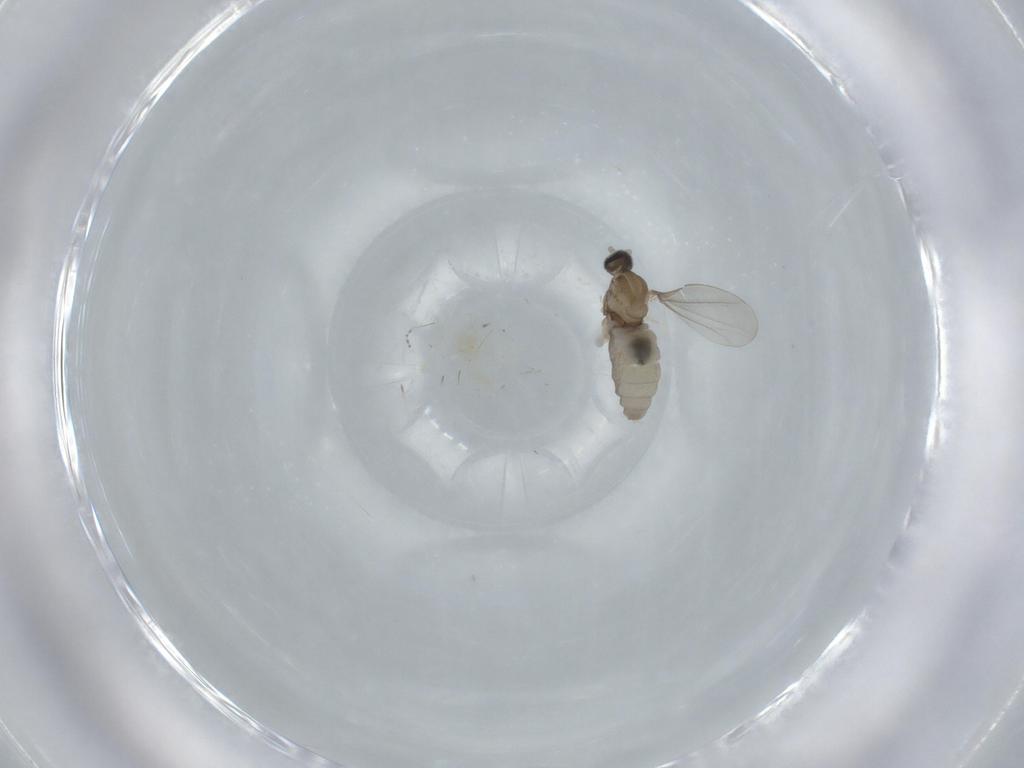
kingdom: Animalia
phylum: Arthropoda
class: Insecta
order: Diptera
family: Cecidomyiidae
